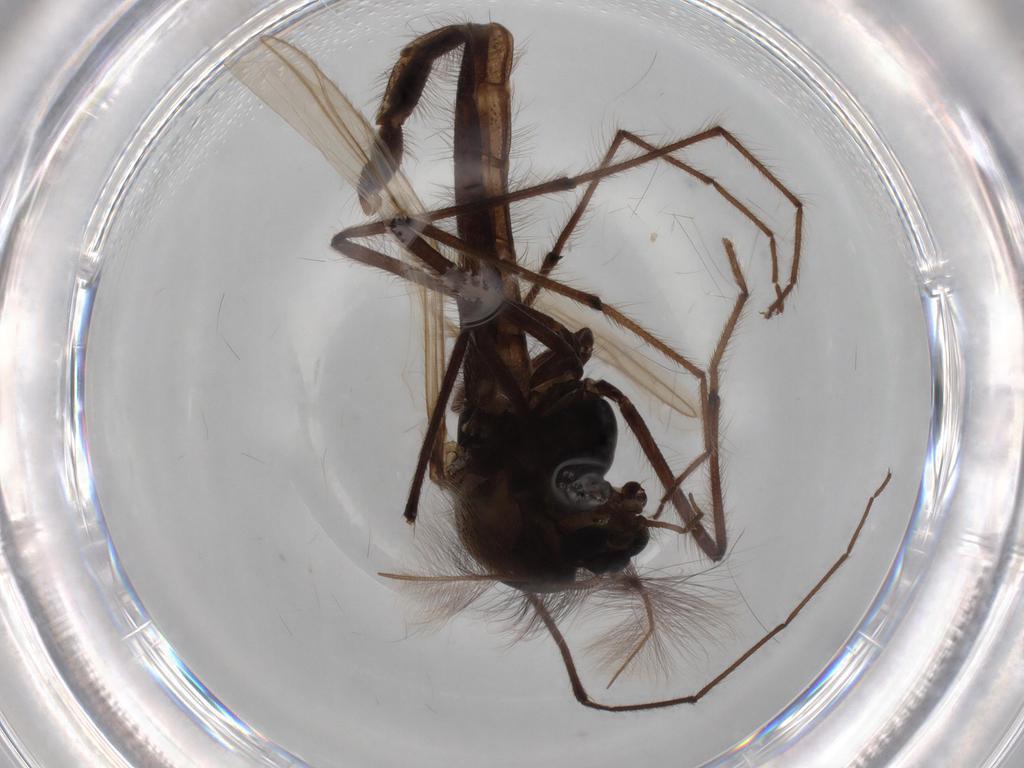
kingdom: Animalia
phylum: Arthropoda
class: Insecta
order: Diptera
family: Chironomidae
